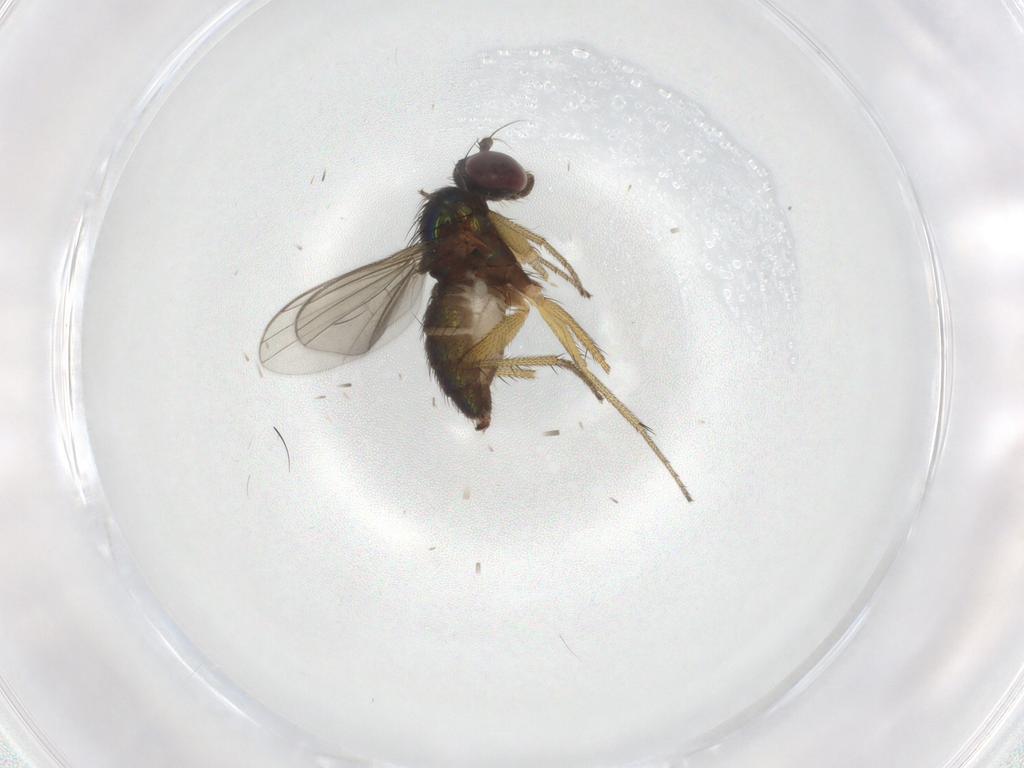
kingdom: Animalia
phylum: Arthropoda
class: Insecta
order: Diptera
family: Dolichopodidae
